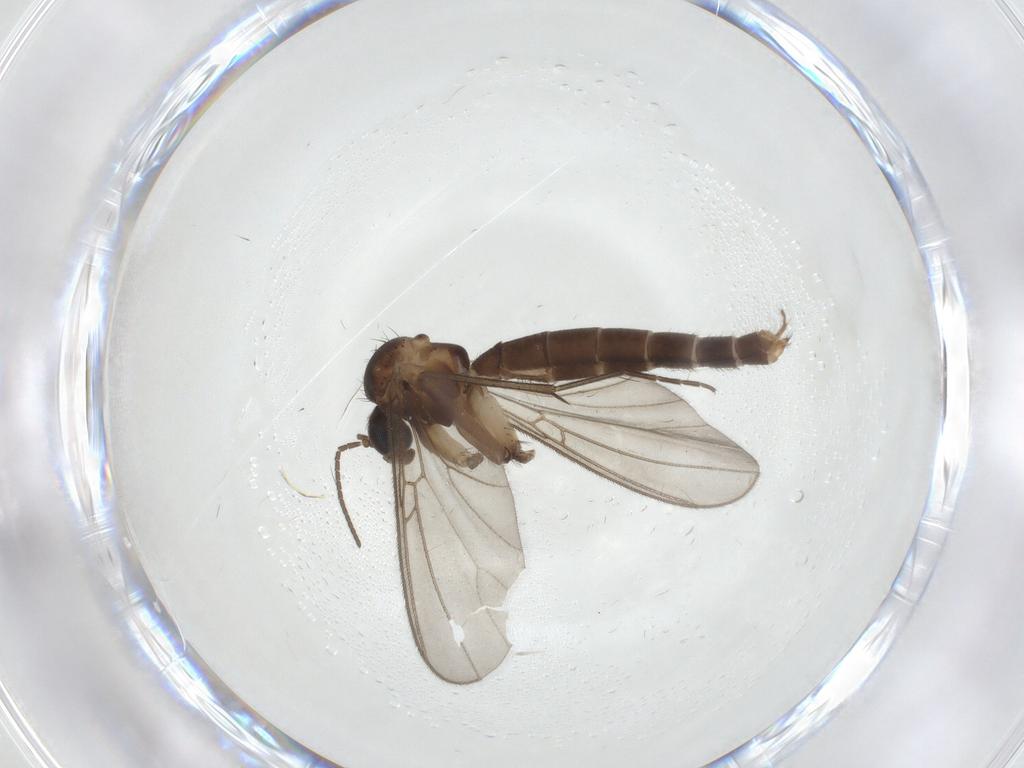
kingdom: Animalia
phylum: Arthropoda
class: Insecta
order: Diptera
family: Mycetophilidae
